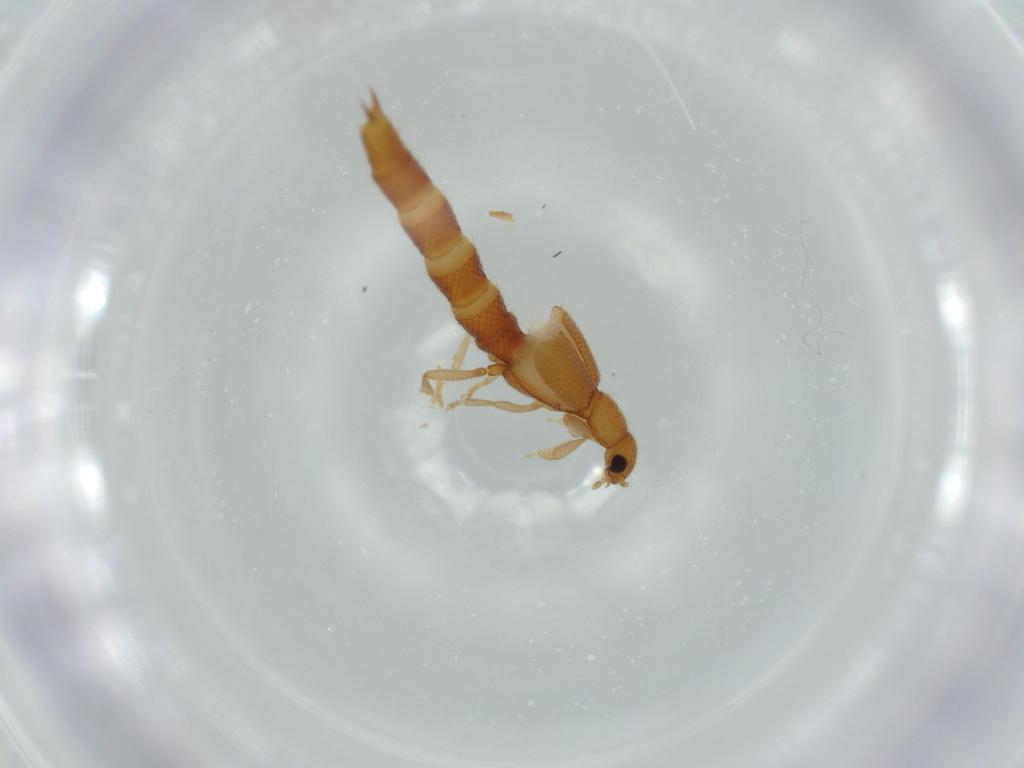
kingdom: Animalia
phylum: Arthropoda
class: Insecta
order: Coleoptera
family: Staphylinidae
